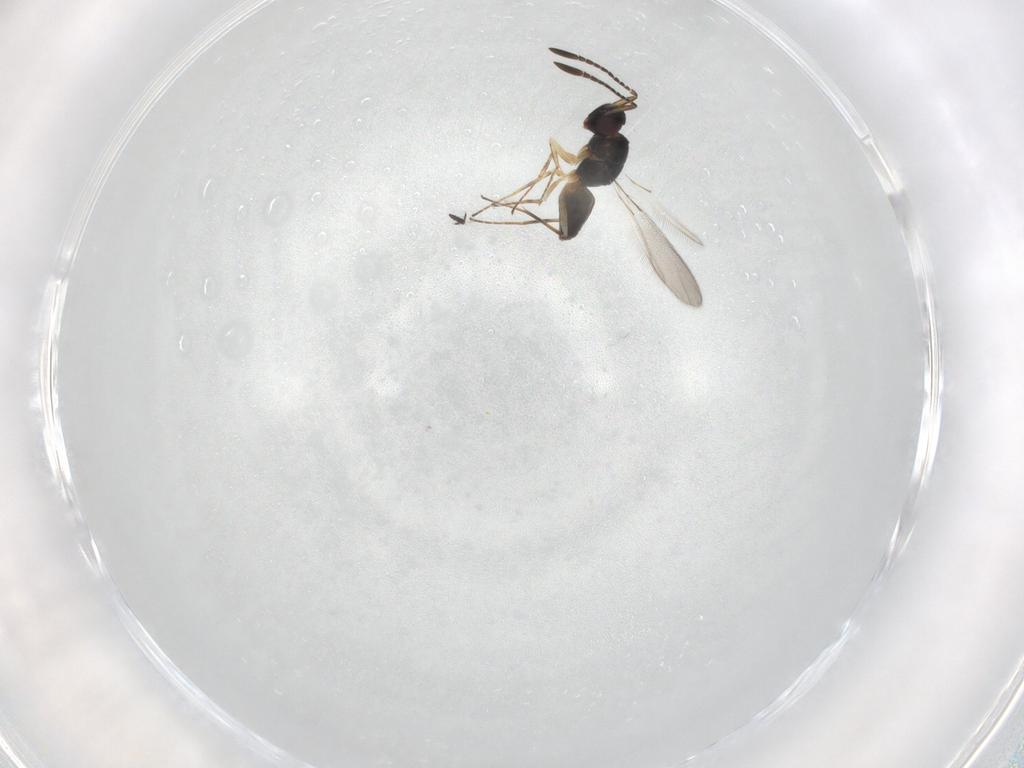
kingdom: Animalia
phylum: Arthropoda
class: Insecta
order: Hymenoptera
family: Mymaridae
